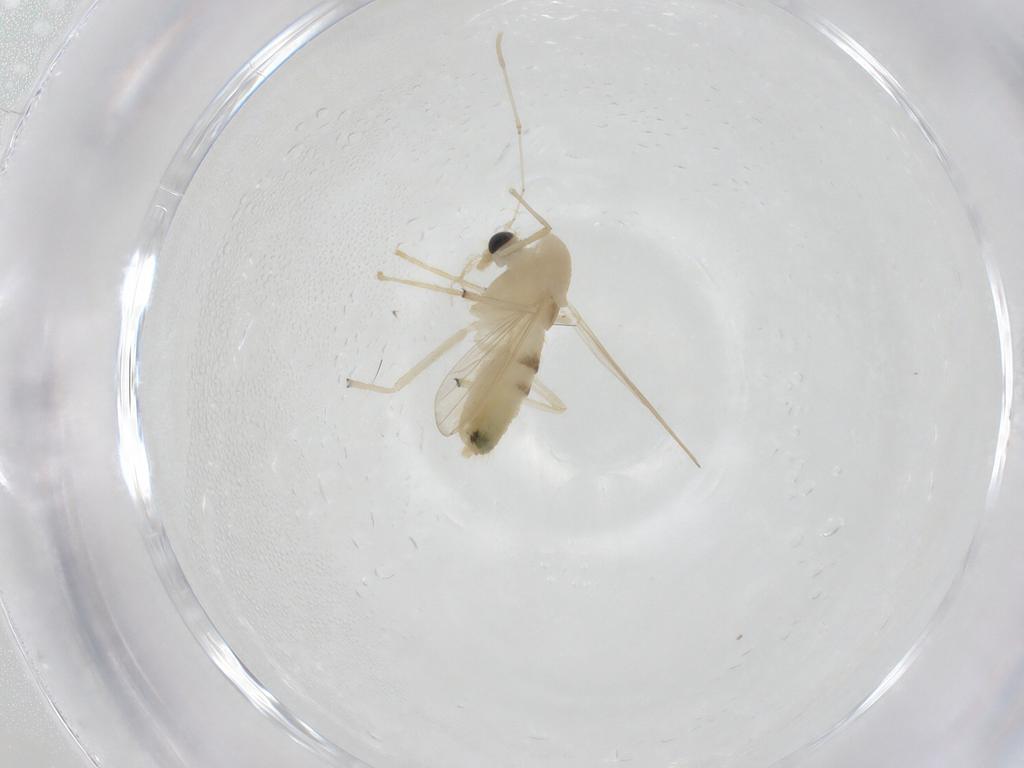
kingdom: Animalia
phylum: Arthropoda
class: Insecta
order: Diptera
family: Chironomidae
